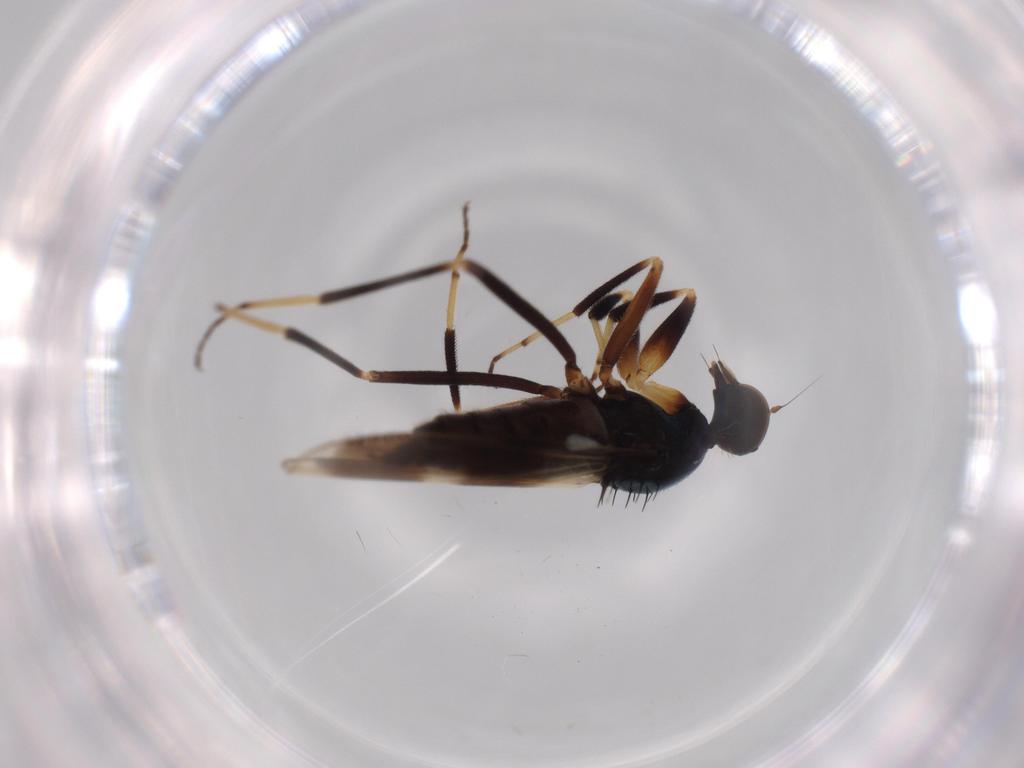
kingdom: Animalia
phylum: Arthropoda
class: Insecta
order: Diptera
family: Hybotidae
